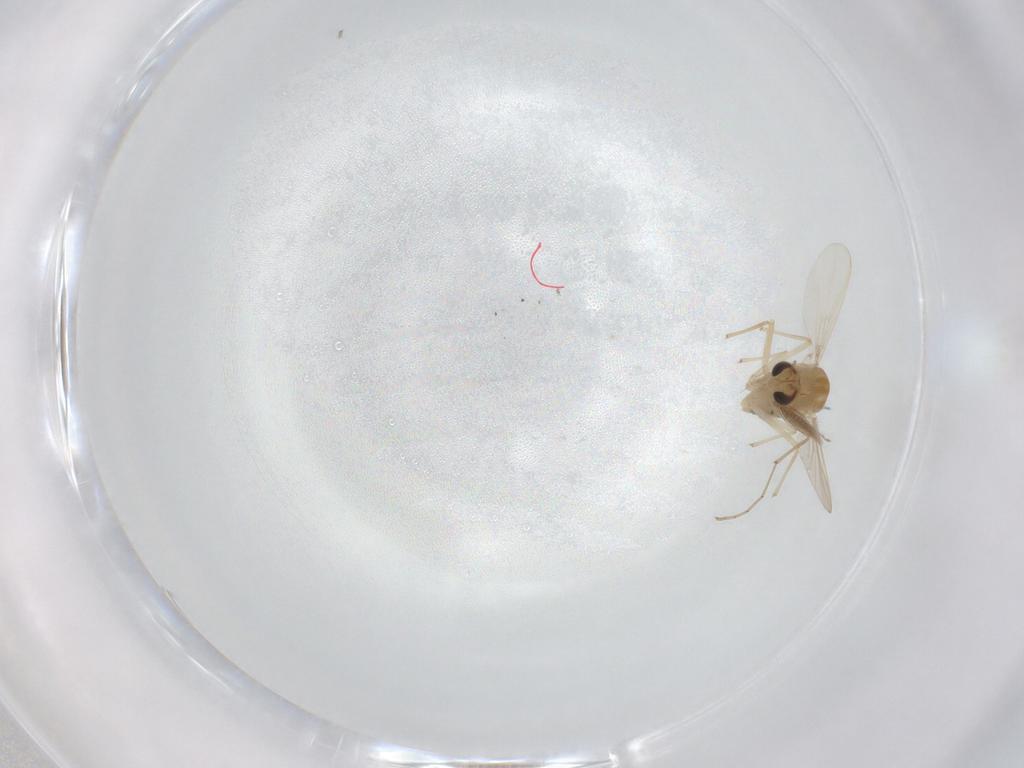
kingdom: Animalia
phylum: Arthropoda
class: Insecta
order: Diptera
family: Chironomidae
